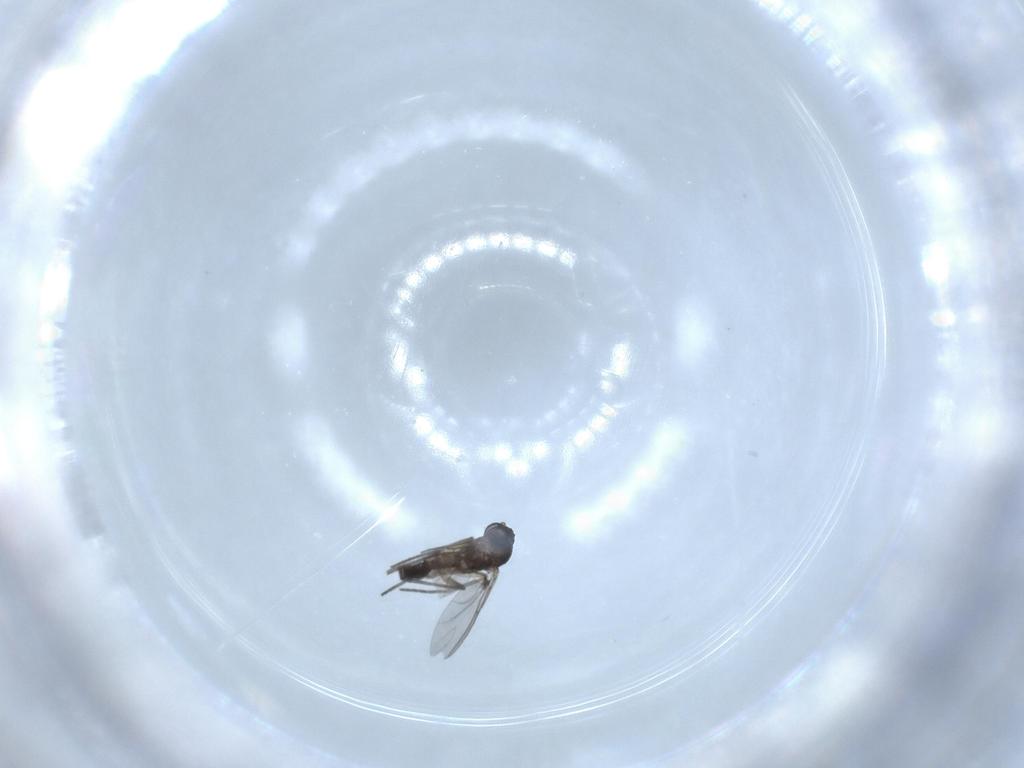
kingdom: Animalia
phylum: Arthropoda
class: Insecta
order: Diptera
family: Sciaridae
